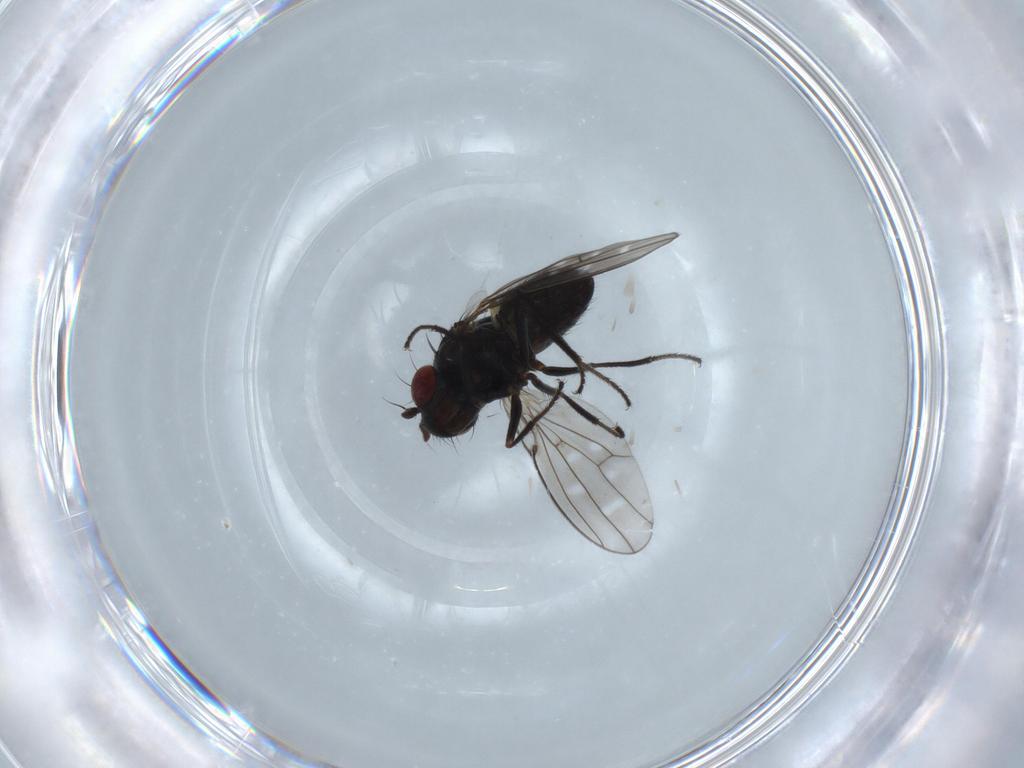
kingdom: Animalia
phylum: Arthropoda
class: Insecta
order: Diptera
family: Ephydridae
